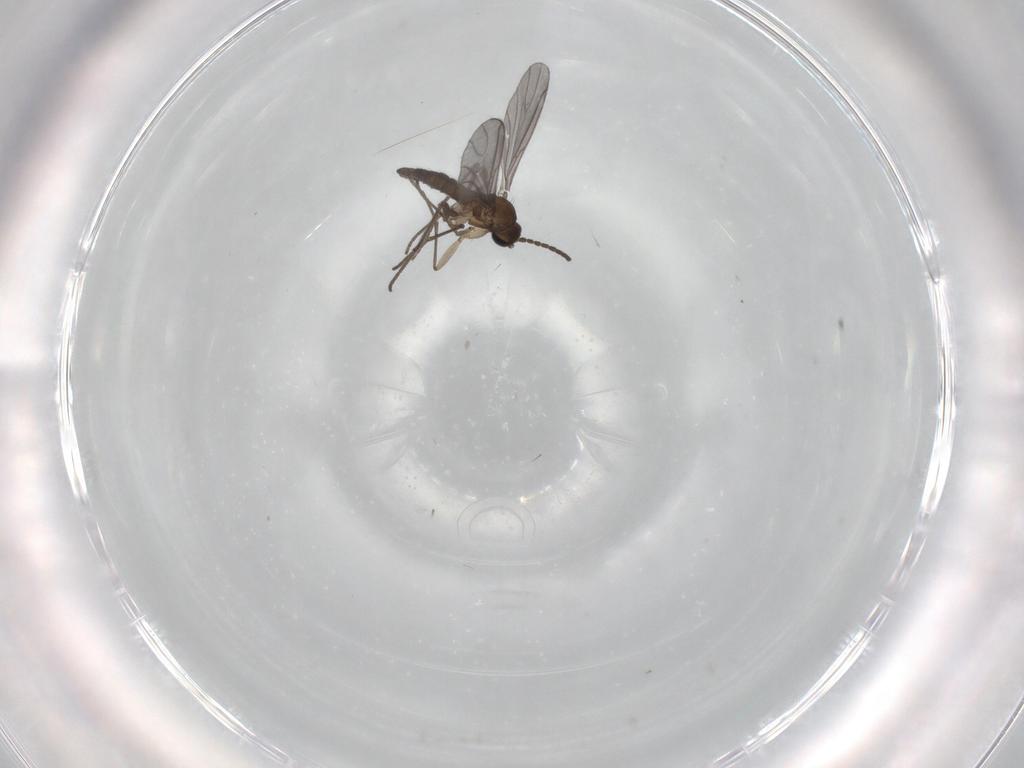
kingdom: Animalia
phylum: Arthropoda
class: Insecta
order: Diptera
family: Sciaridae
